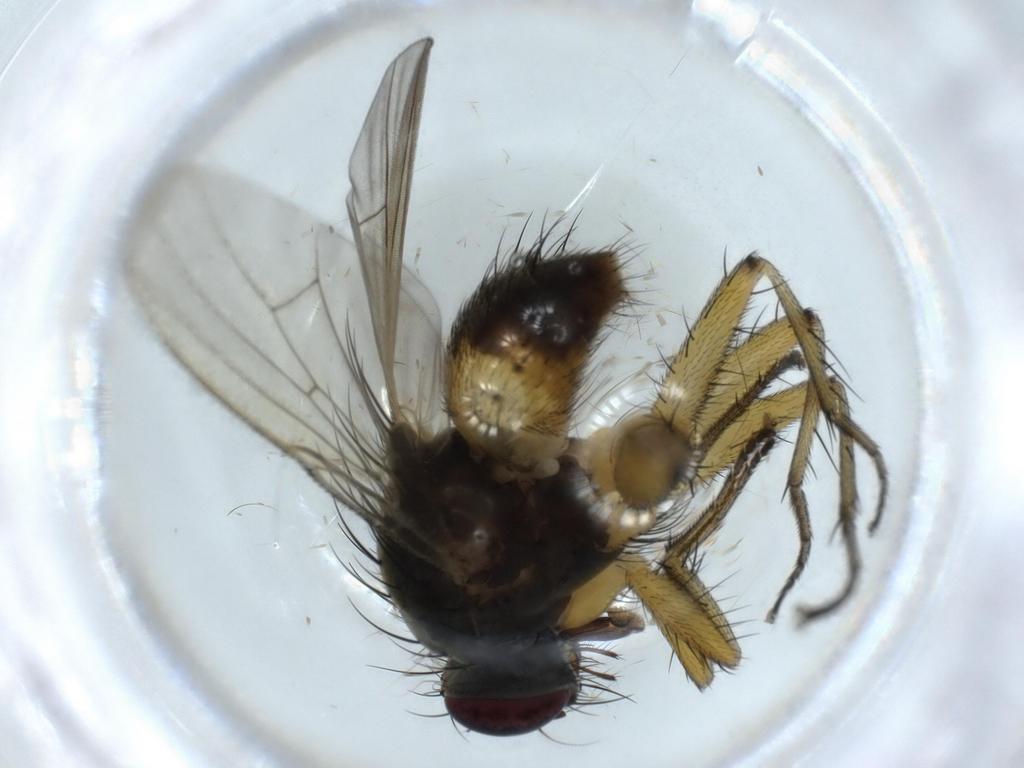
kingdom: Animalia
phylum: Arthropoda
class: Insecta
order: Diptera
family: Muscidae
